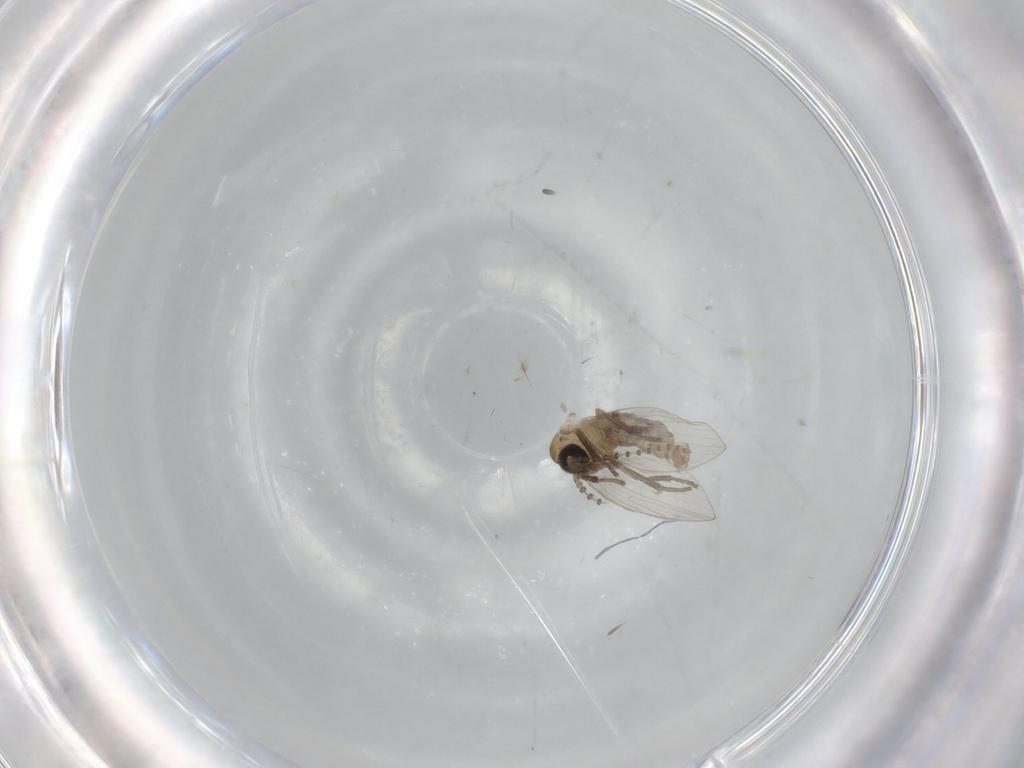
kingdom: Animalia
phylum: Arthropoda
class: Insecta
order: Diptera
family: Psychodidae
